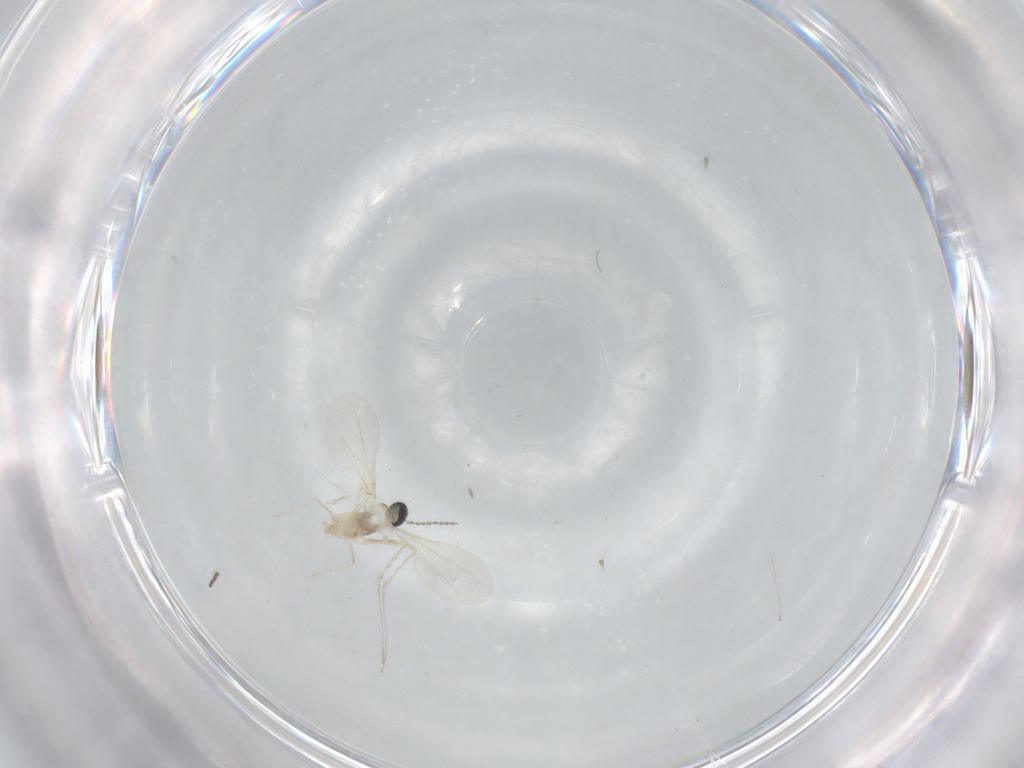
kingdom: Animalia
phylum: Arthropoda
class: Insecta
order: Diptera
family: Cecidomyiidae
